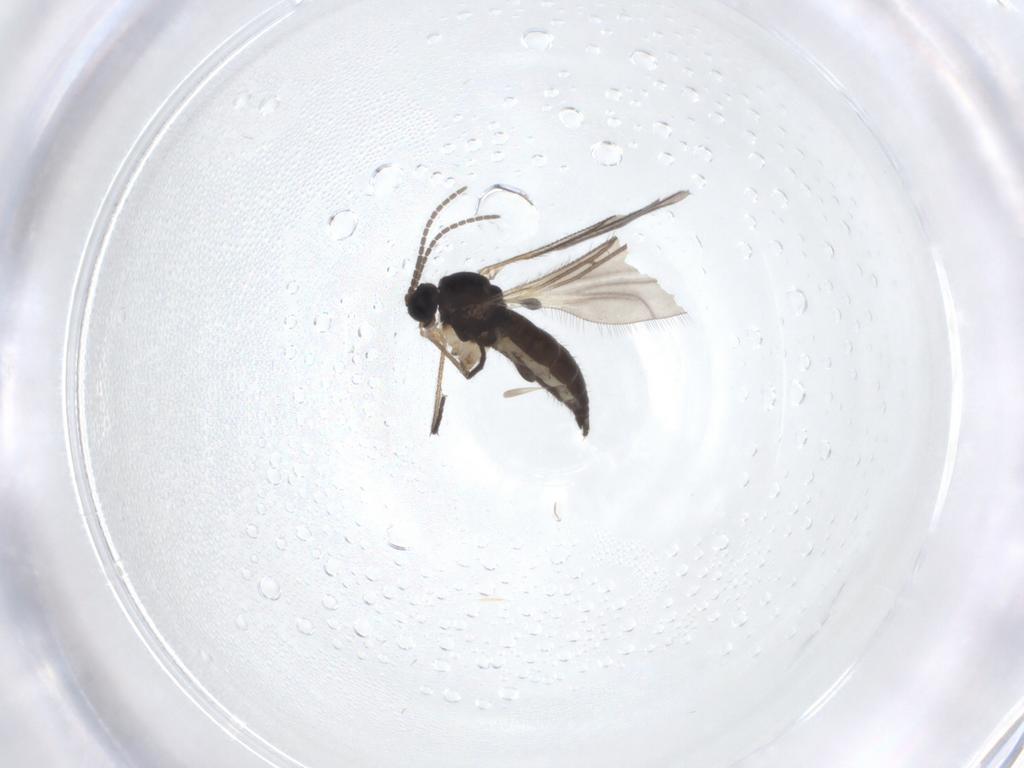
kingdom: Animalia
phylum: Arthropoda
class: Insecta
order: Diptera
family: Sciaridae
